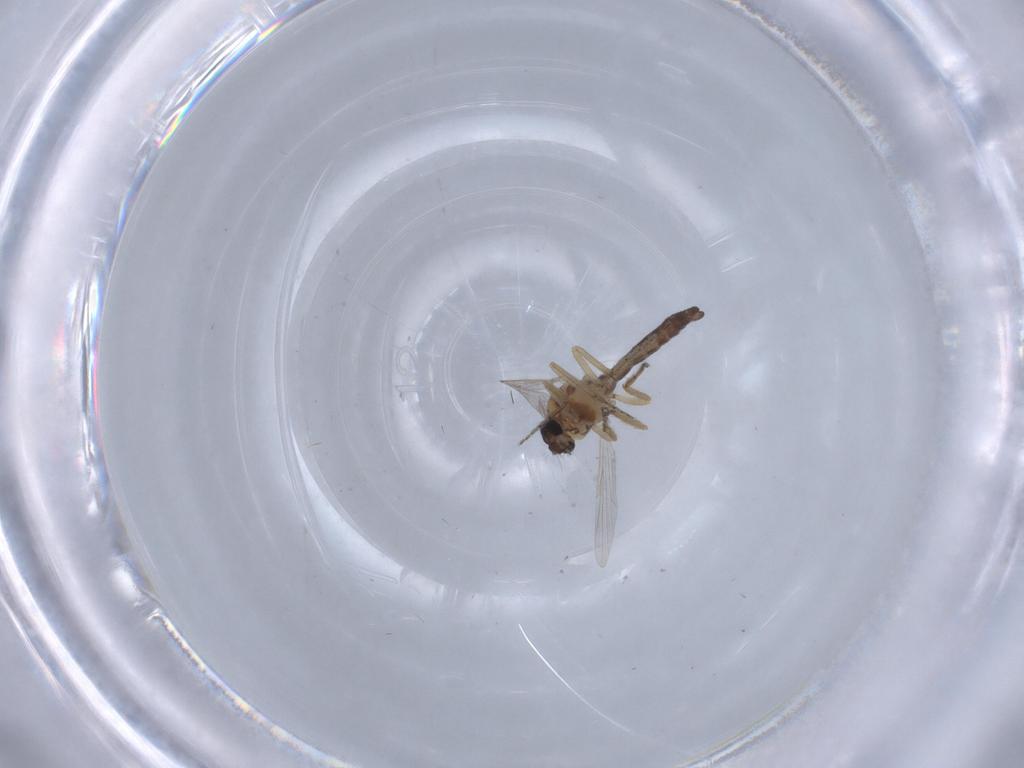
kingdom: Animalia
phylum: Arthropoda
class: Insecta
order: Diptera
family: Ceratopogonidae
